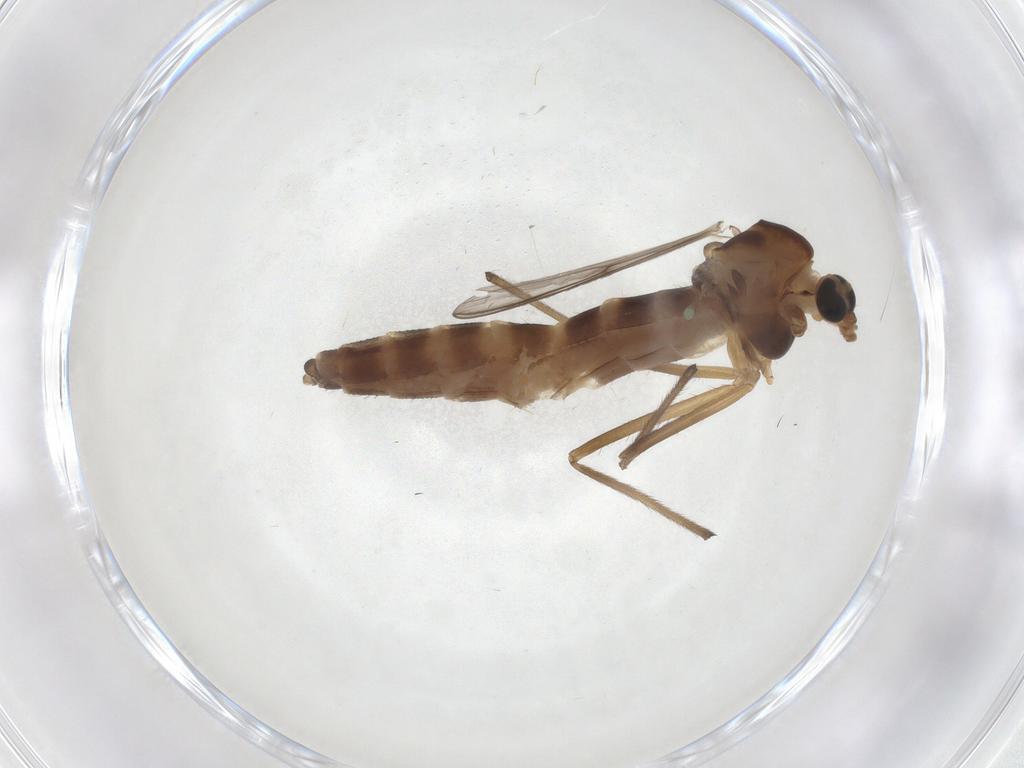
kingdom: Animalia
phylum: Arthropoda
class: Insecta
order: Diptera
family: Chironomidae
